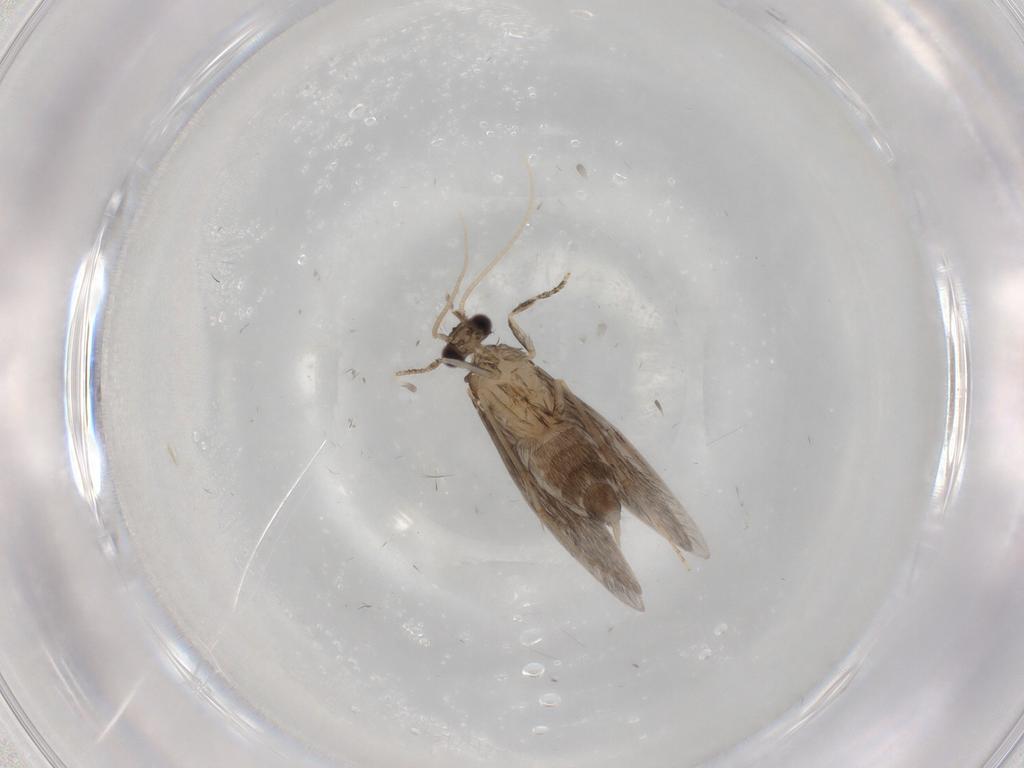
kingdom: Animalia
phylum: Arthropoda
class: Insecta
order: Trichoptera
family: Hydroptilidae
